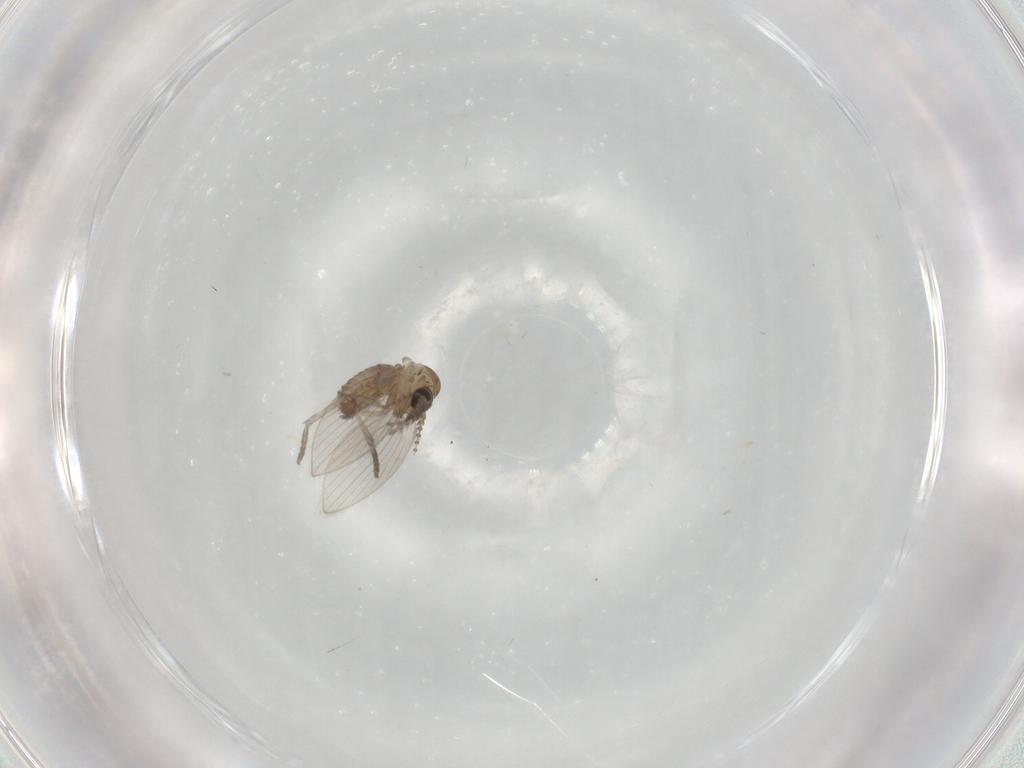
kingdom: Animalia
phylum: Arthropoda
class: Insecta
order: Diptera
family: Psychodidae
